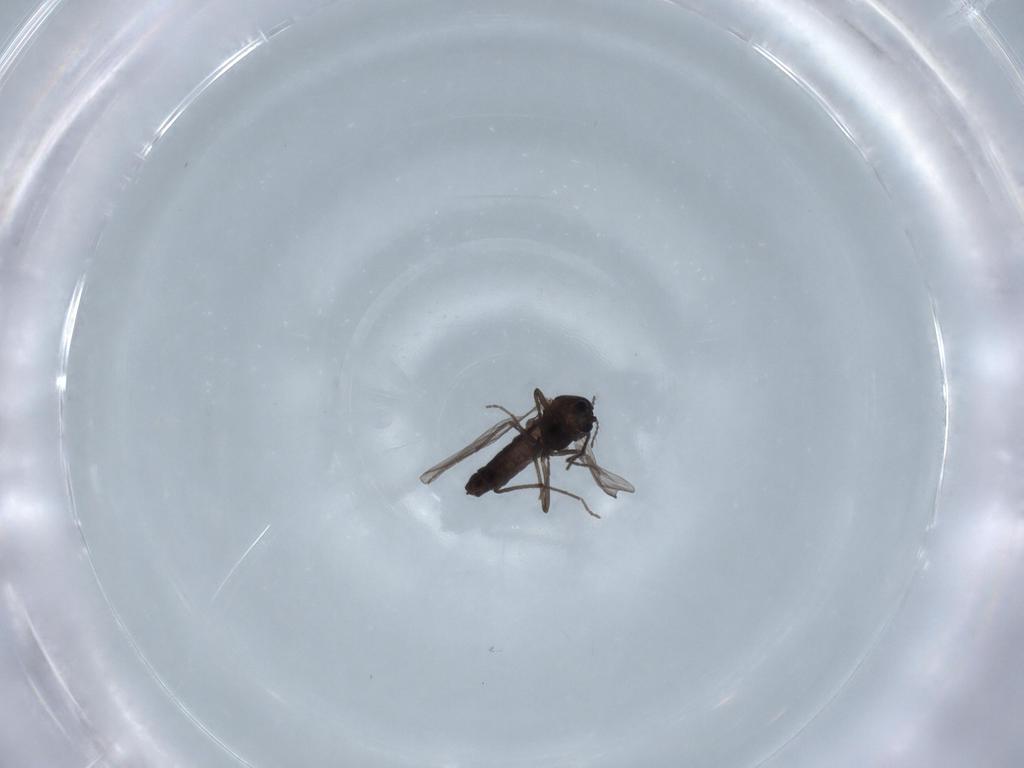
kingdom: Animalia
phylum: Arthropoda
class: Insecta
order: Diptera
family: Chironomidae
